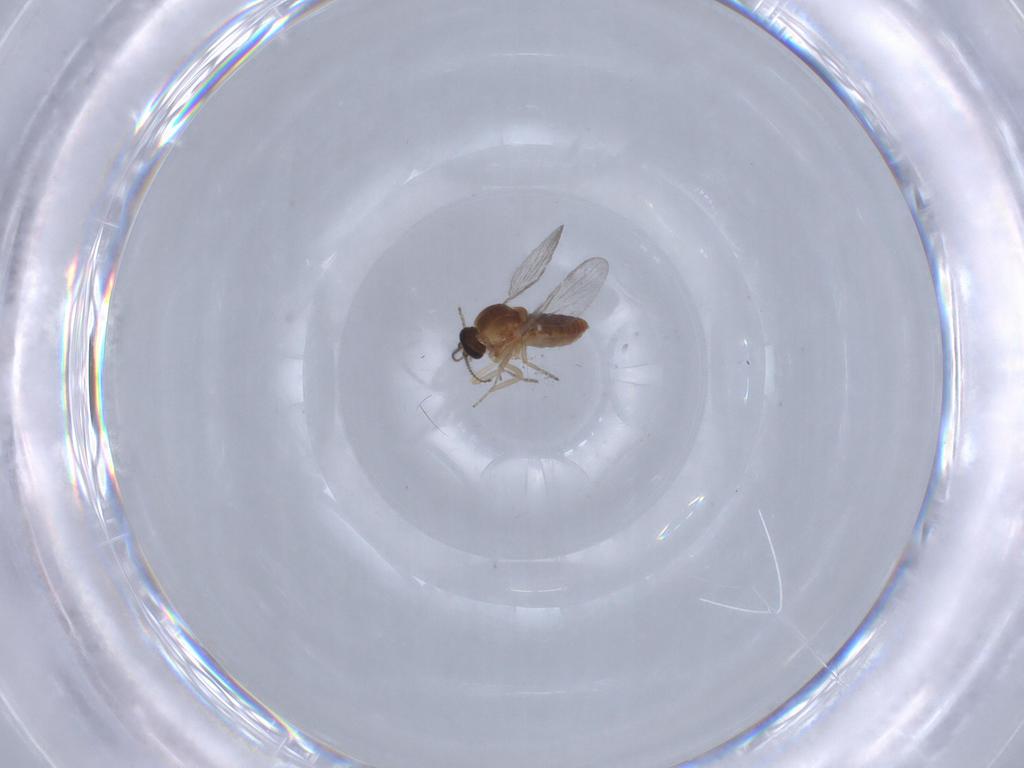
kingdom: Animalia
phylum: Arthropoda
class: Insecta
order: Diptera
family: Ceratopogonidae
